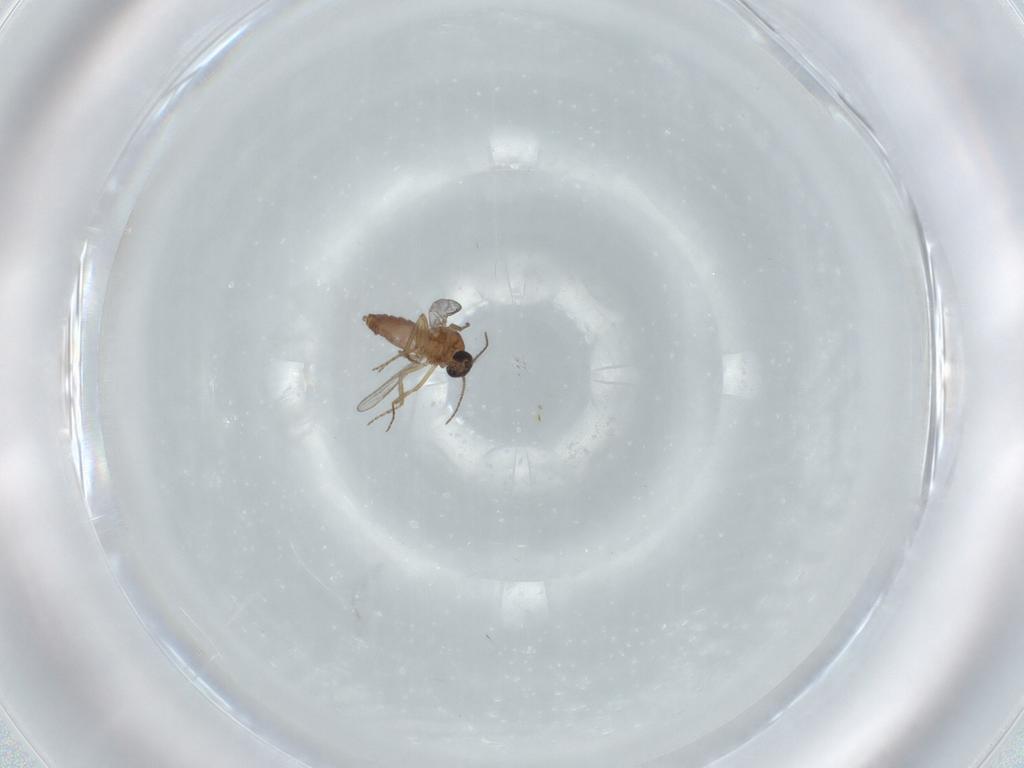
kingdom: Animalia
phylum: Arthropoda
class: Insecta
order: Diptera
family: Chironomidae
